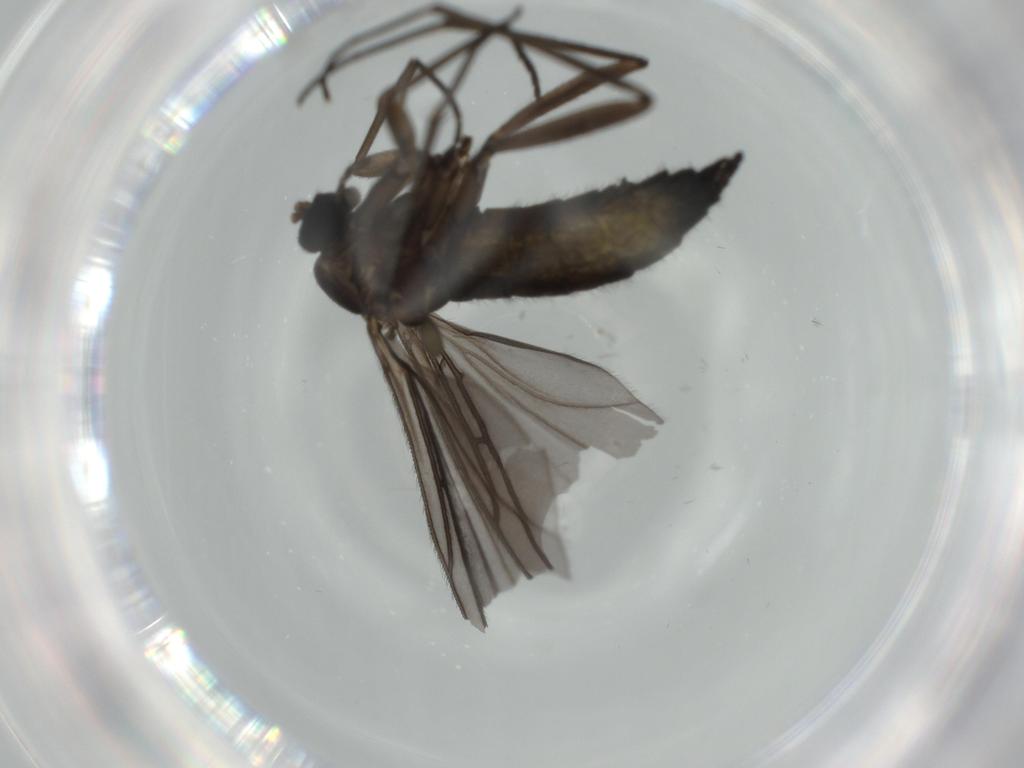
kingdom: Animalia
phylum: Arthropoda
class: Insecta
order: Diptera
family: Sciaridae
